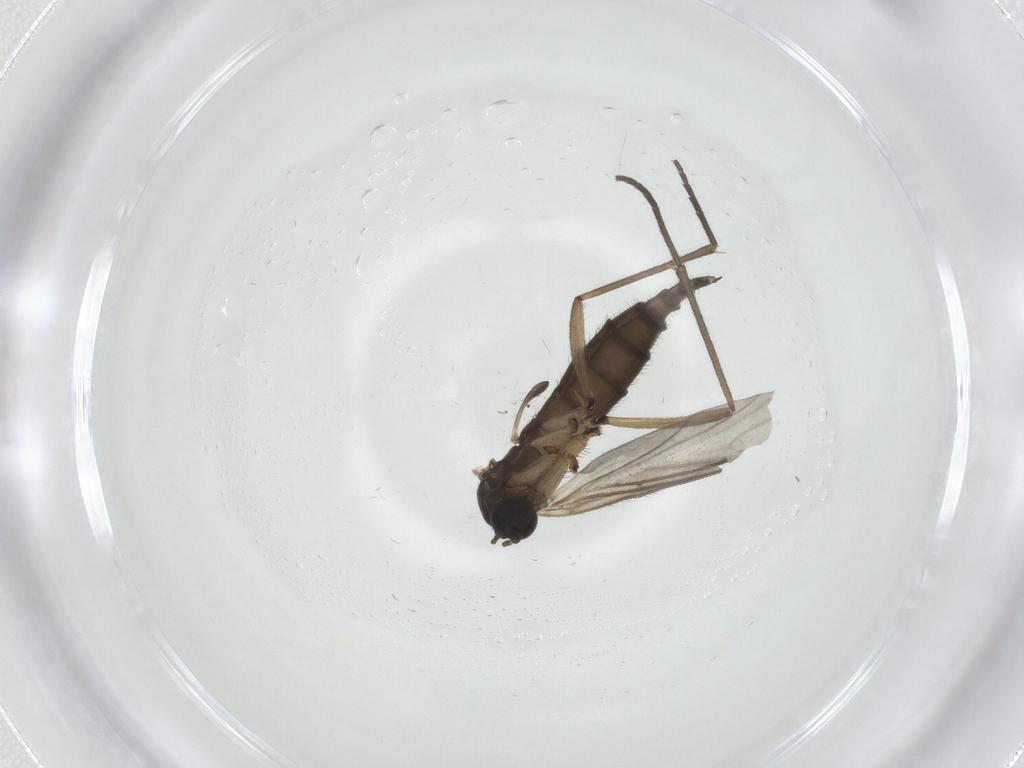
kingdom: Animalia
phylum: Arthropoda
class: Insecta
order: Diptera
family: Sciaridae
